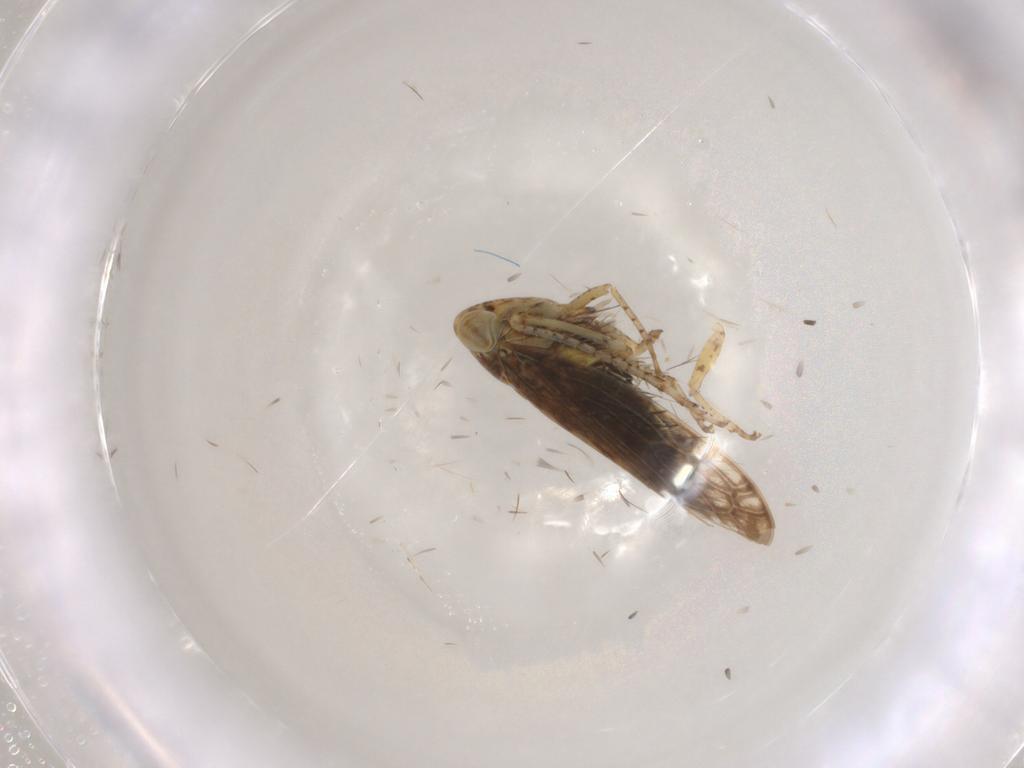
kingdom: Animalia
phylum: Arthropoda
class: Insecta
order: Hemiptera
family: Cicadellidae
